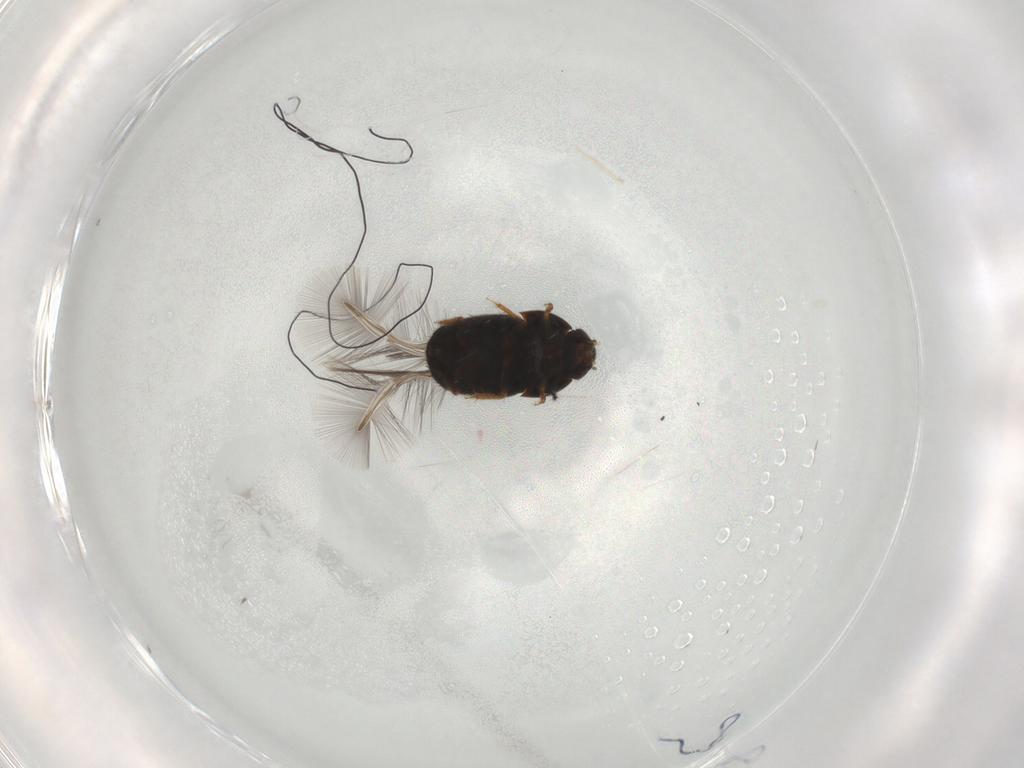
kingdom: Animalia
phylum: Arthropoda
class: Insecta
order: Coleoptera
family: Ptiliidae
